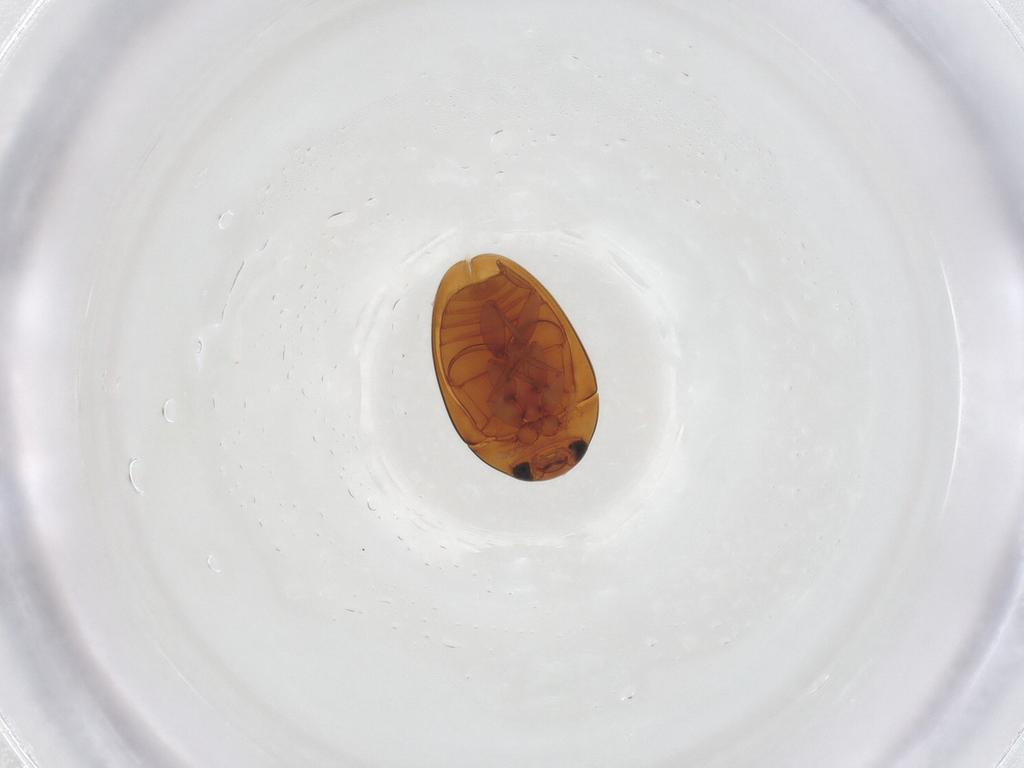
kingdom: Animalia
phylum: Arthropoda
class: Insecta
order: Coleoptera
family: Phalacridae
